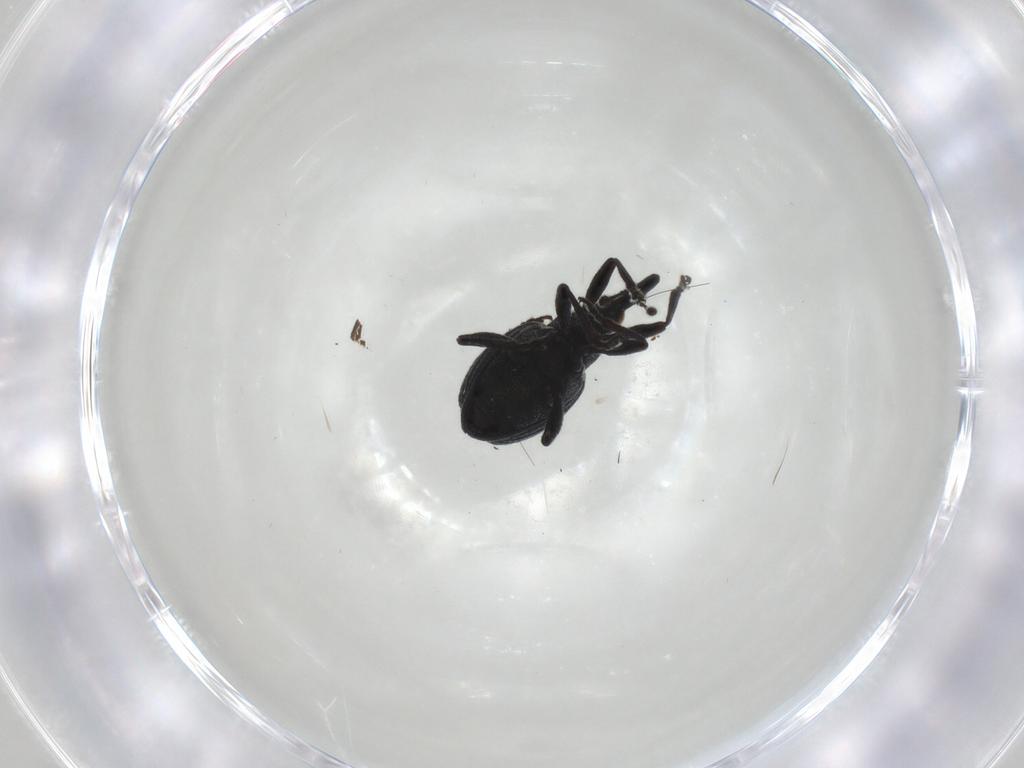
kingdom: Animalia
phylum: Arthropoda
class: Insecta
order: Coleoptera
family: Brentidae
